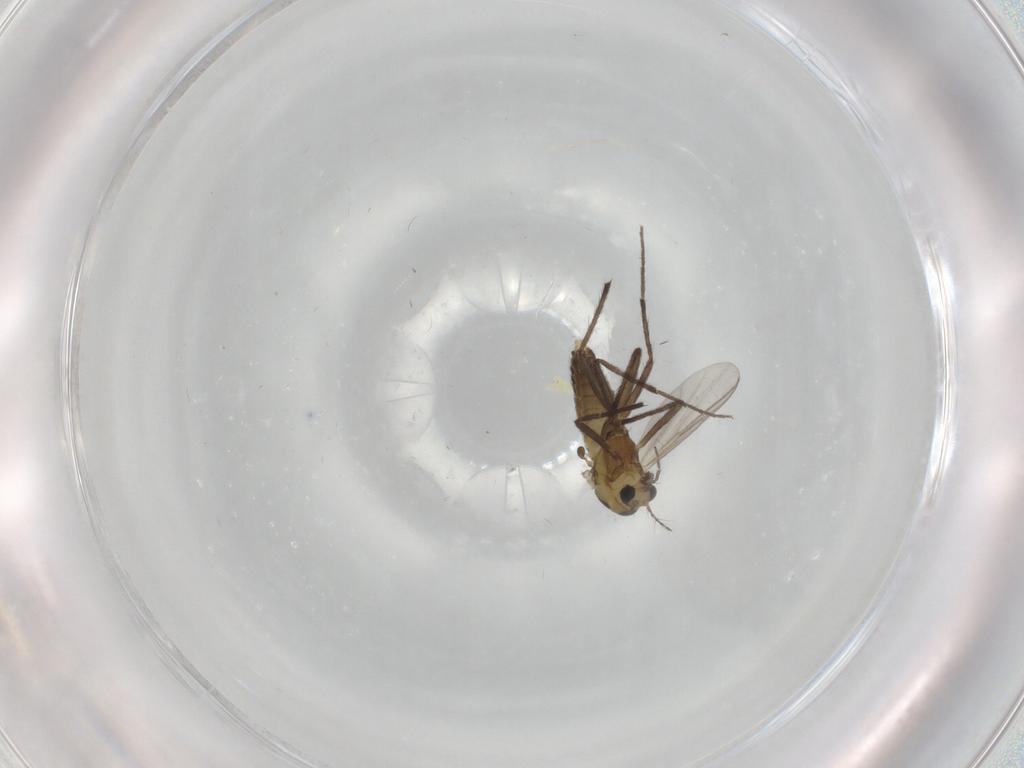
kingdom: Animalia
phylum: Arthropoda
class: Insecta
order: Diptera
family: Chironomidae
